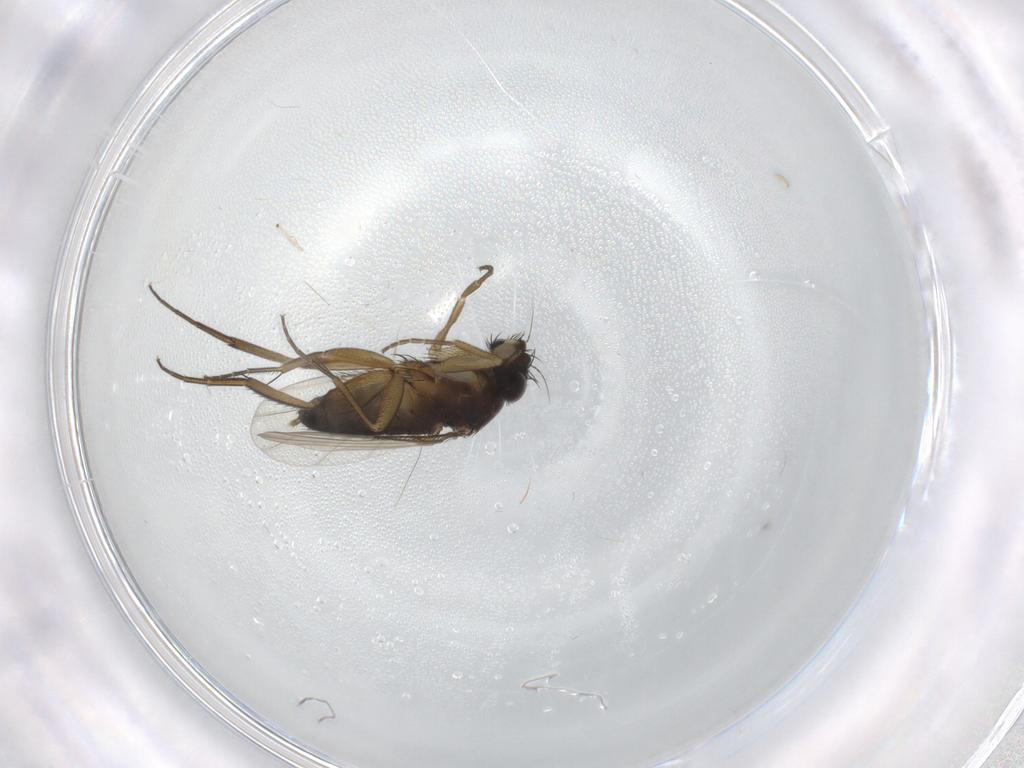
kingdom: Animalia
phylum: Arthropoda
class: Insecta
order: Diptera
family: Phoridae
